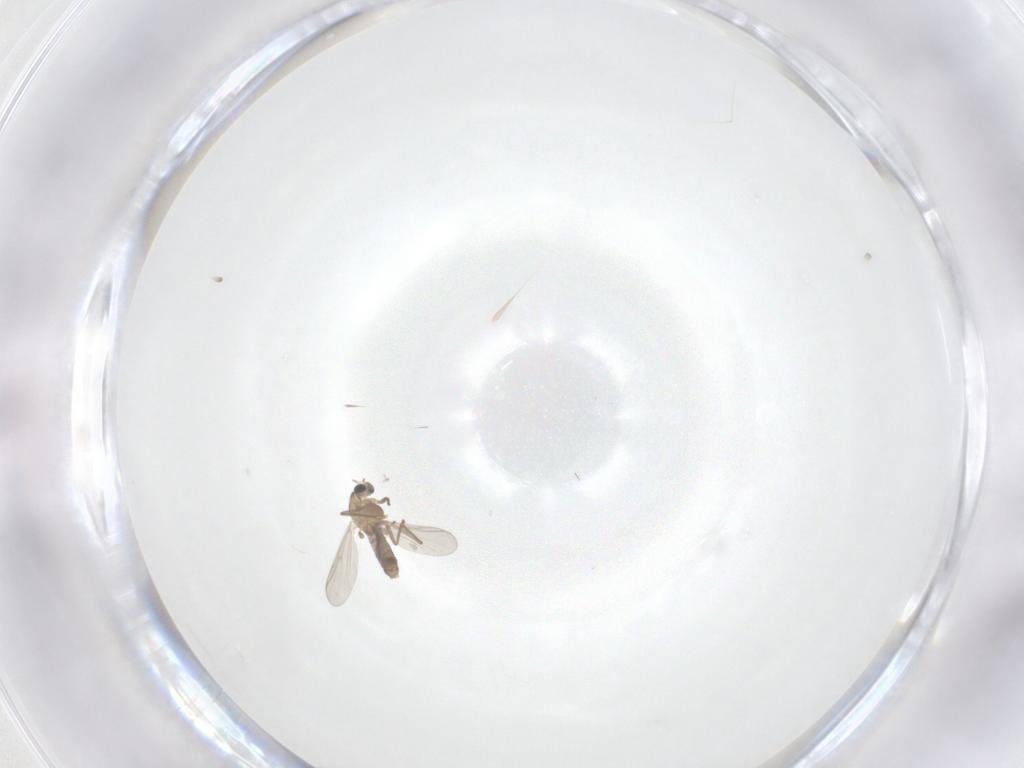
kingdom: Animalia
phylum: Arthropoda
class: Insecta
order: Diptera
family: Chironomidae
